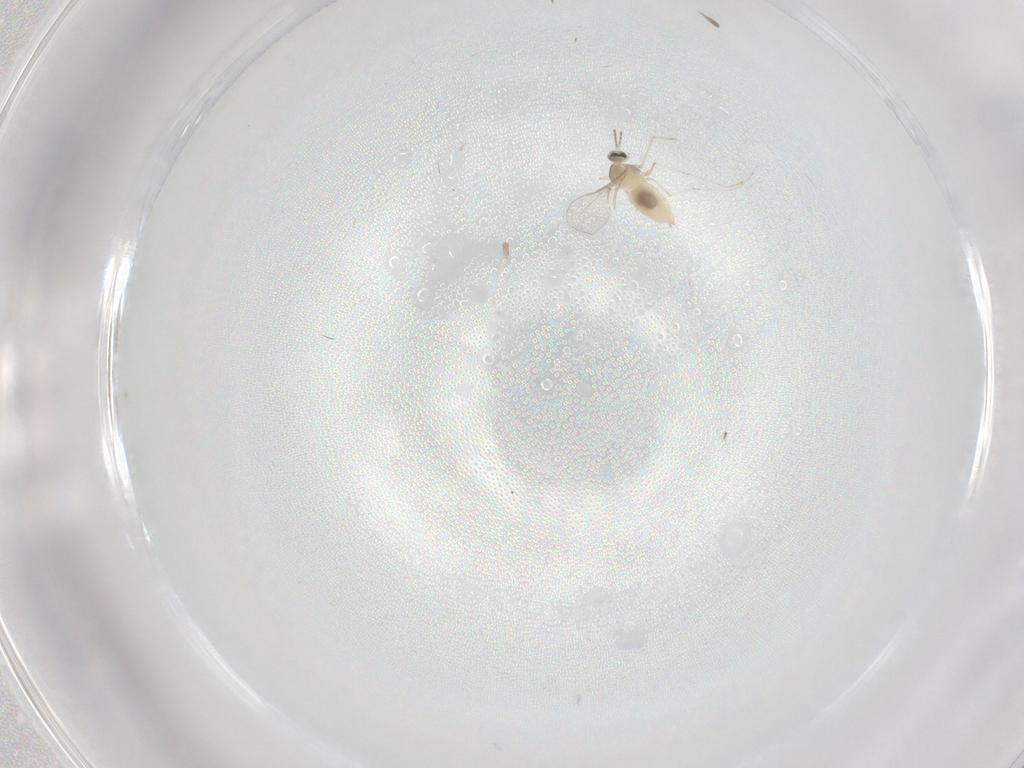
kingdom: Animalia
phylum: Arthropoda
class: Insecta
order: Diptera
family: Cecidomyiidae
